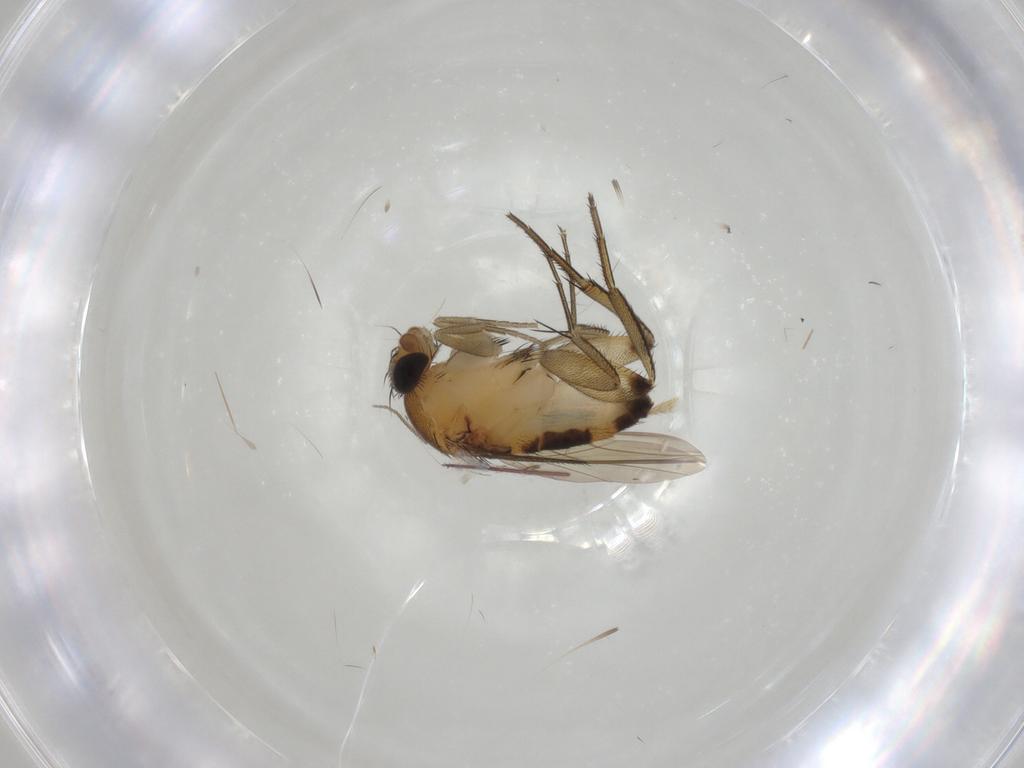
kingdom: Animalia
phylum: Arthropoda
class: Insecta
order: Diptera
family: Phoridae
